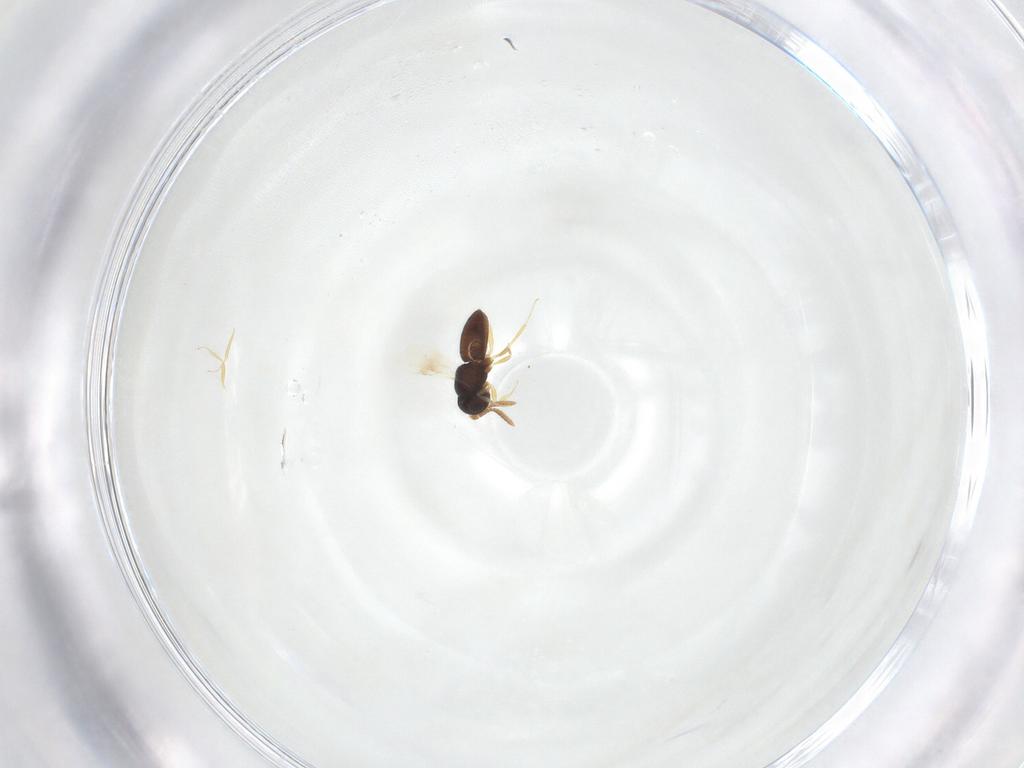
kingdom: Animalia
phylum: Arthropoda
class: Insecta
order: Hymenoptera
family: Scelionidae
